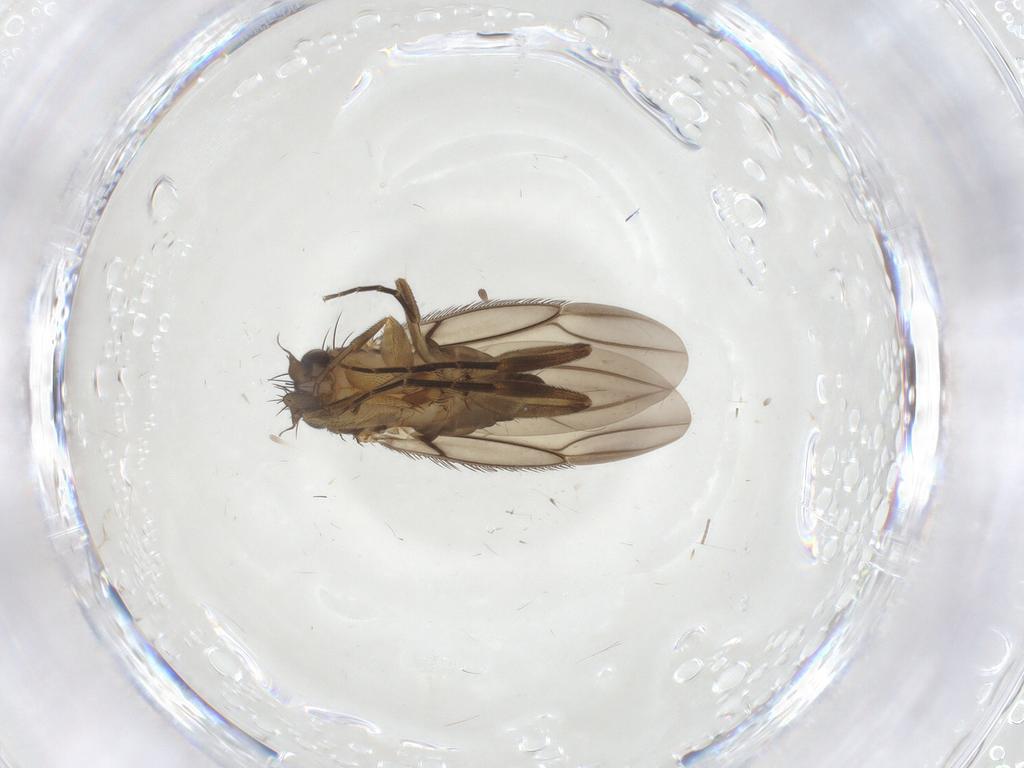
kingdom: Animalia
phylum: Arthropoda
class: Insecta
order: Diptera
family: Phoridae
